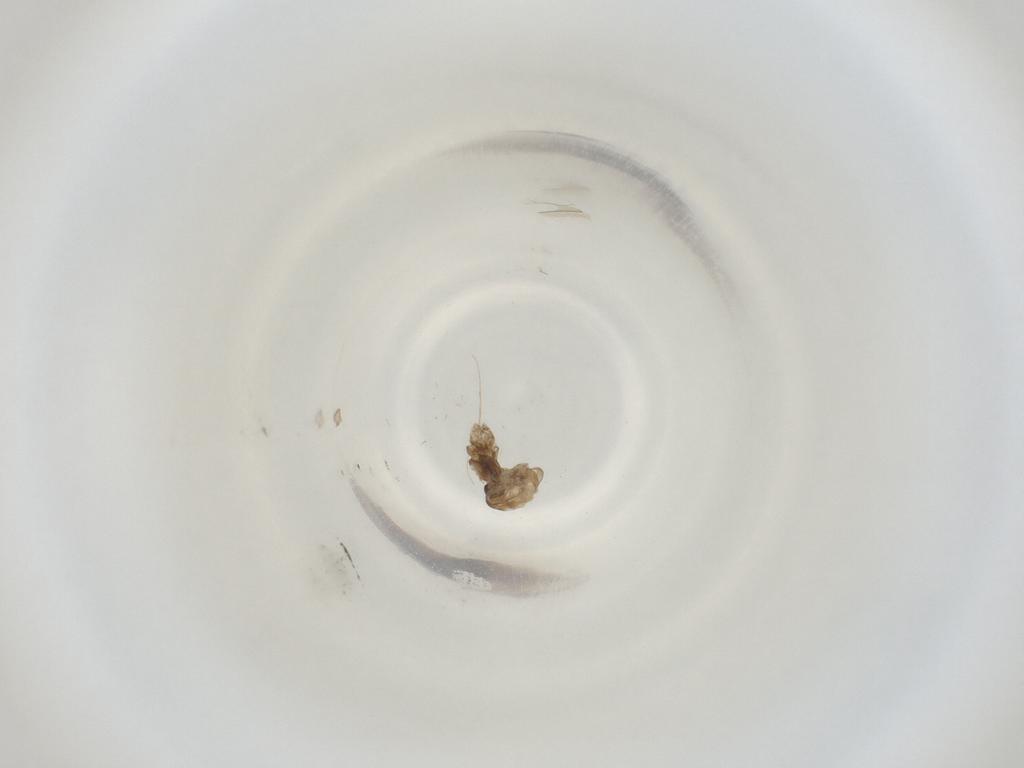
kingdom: Animalia
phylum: Arthropoda
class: Insecta
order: Diptera
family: Cecidomyiidae
